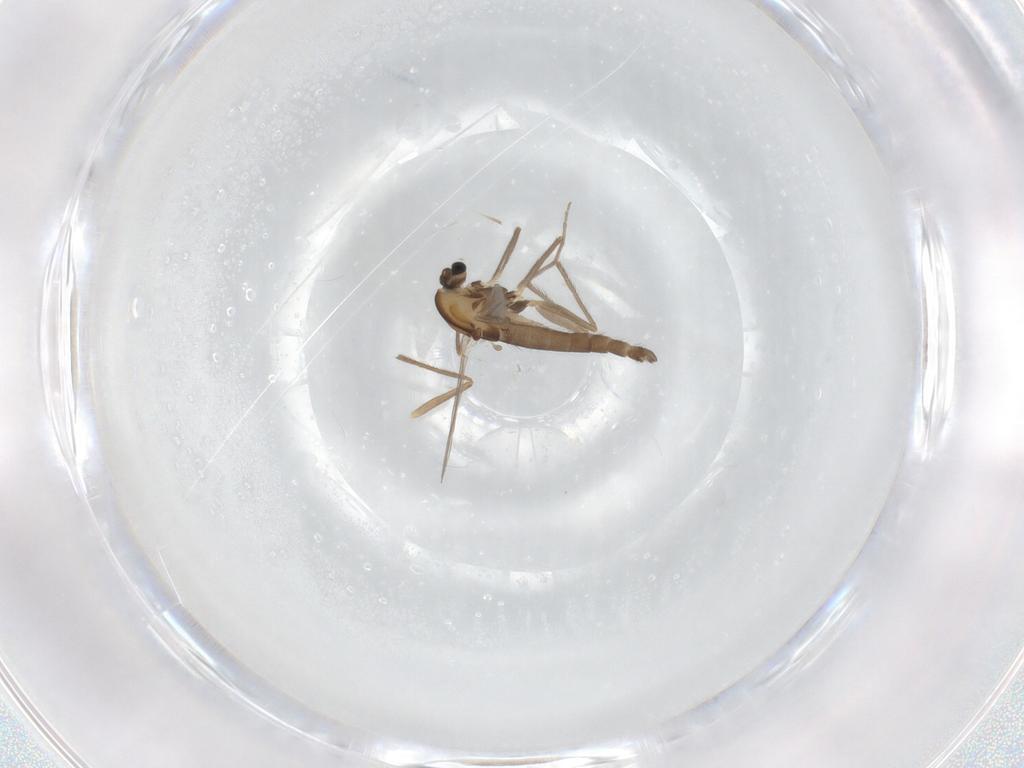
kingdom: Animalia
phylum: Arthropoda
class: Insecta
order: Diptera
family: Chironomidae
